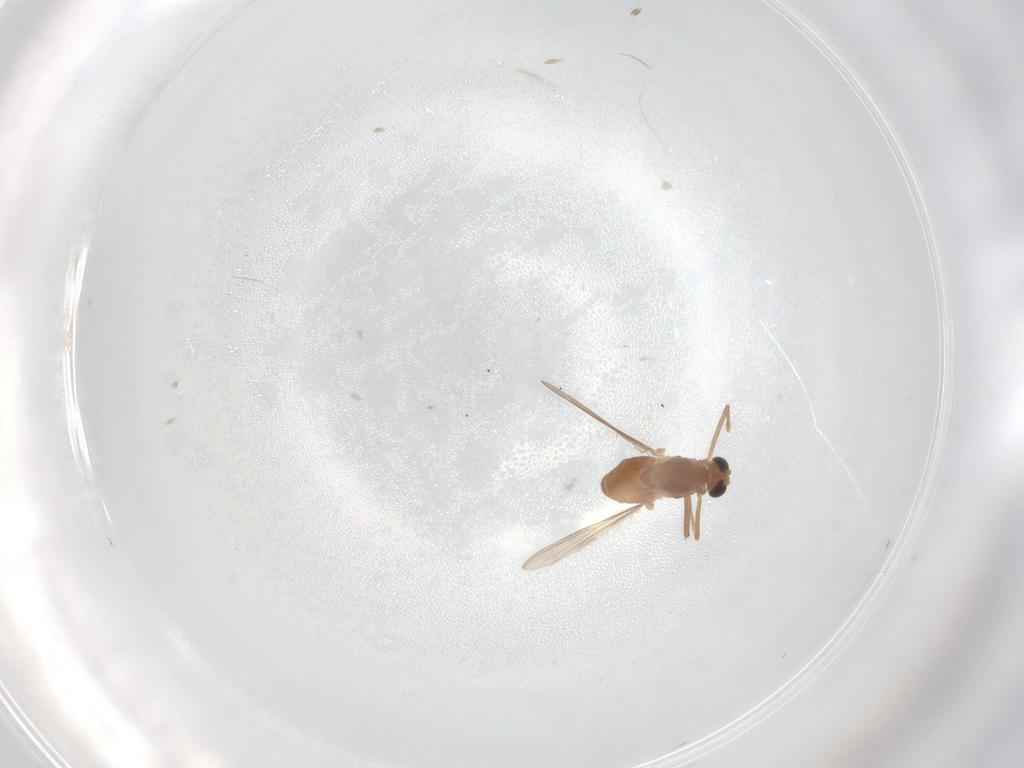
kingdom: Animalia
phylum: Arthropoda
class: Insecta
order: Diptera
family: Chironomidae
